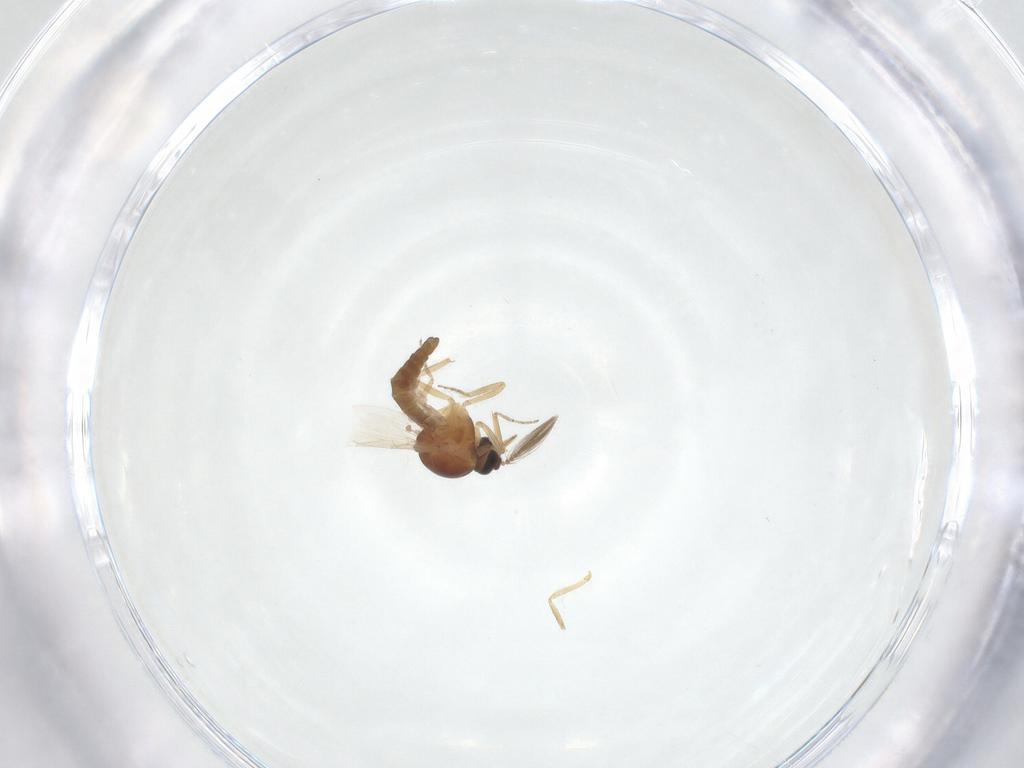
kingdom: Animalia
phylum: Arthropoda
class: Insecta
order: Diptera
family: Ceratopogonidae
